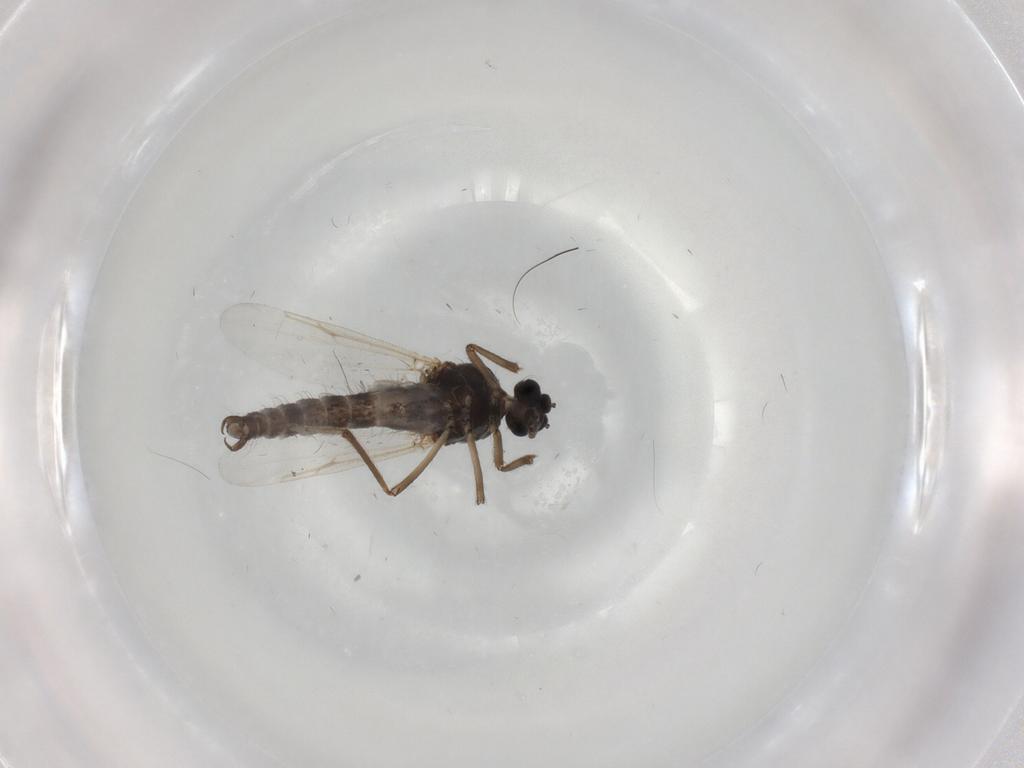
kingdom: Animalia
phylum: Arthropoda
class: Insecta
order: Diptera
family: Ceratopogonidae
